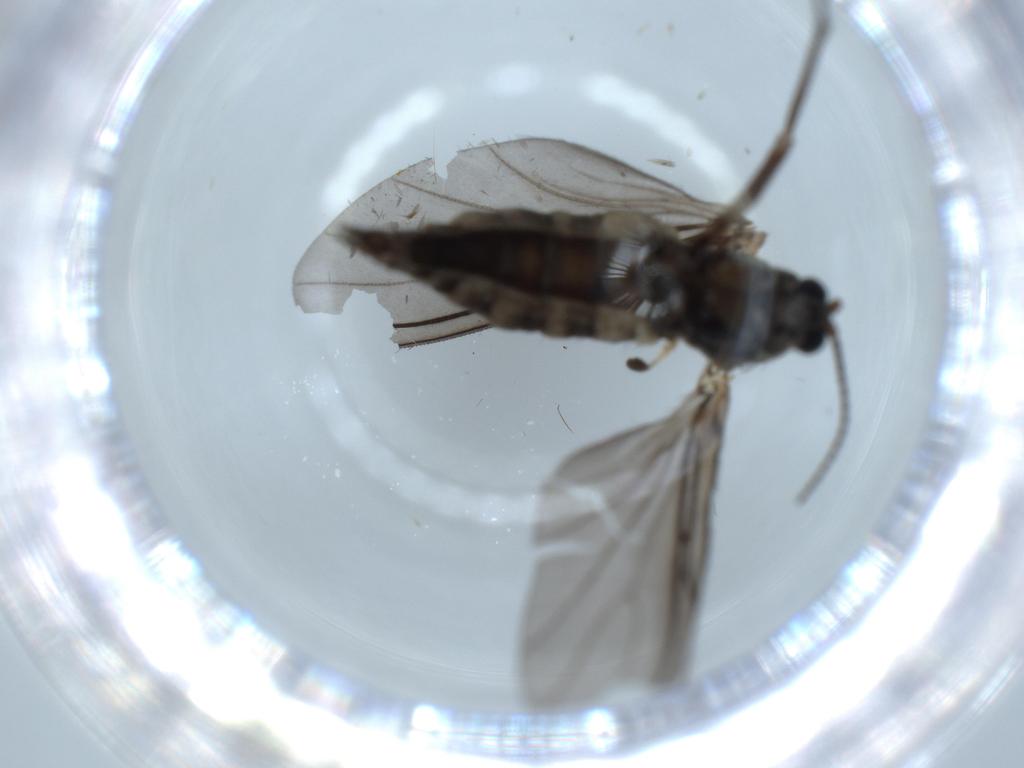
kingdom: Animalia
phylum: Arthropoda
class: Insecta
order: Diptera
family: Sciaridae
